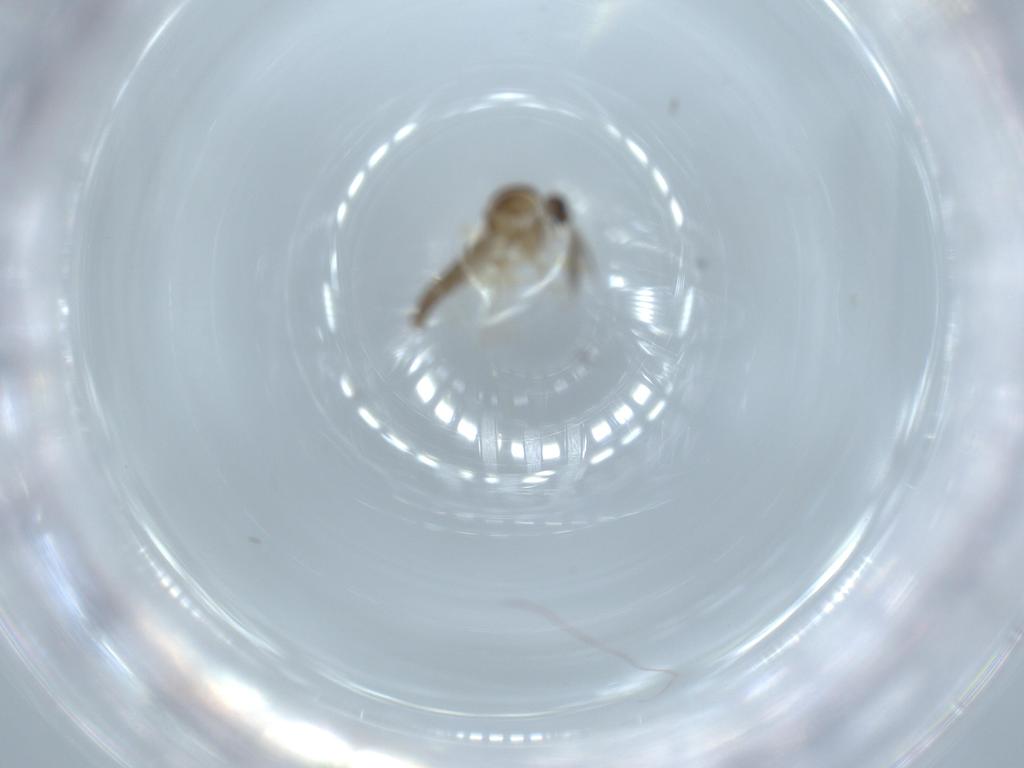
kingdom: Animalia
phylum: Arthropoda
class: Insecta
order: Diptera
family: Ceratopogonidae
